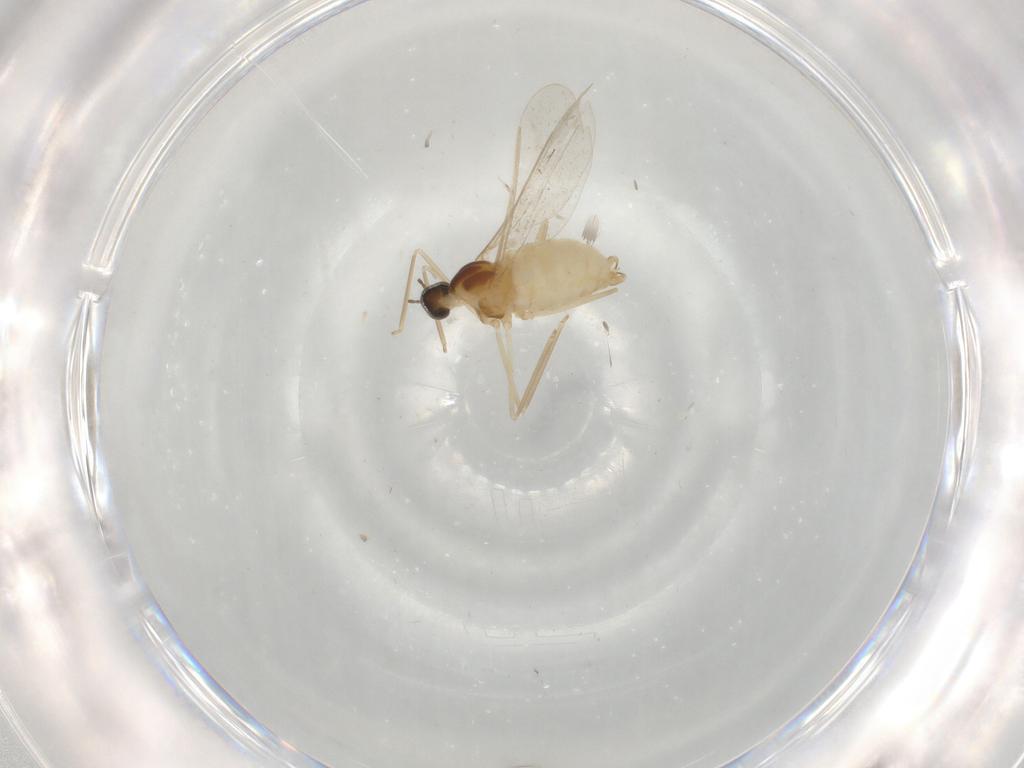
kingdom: Animalia
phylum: Arthropoda
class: Insecta
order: Diptera
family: Cecidomyiidae
